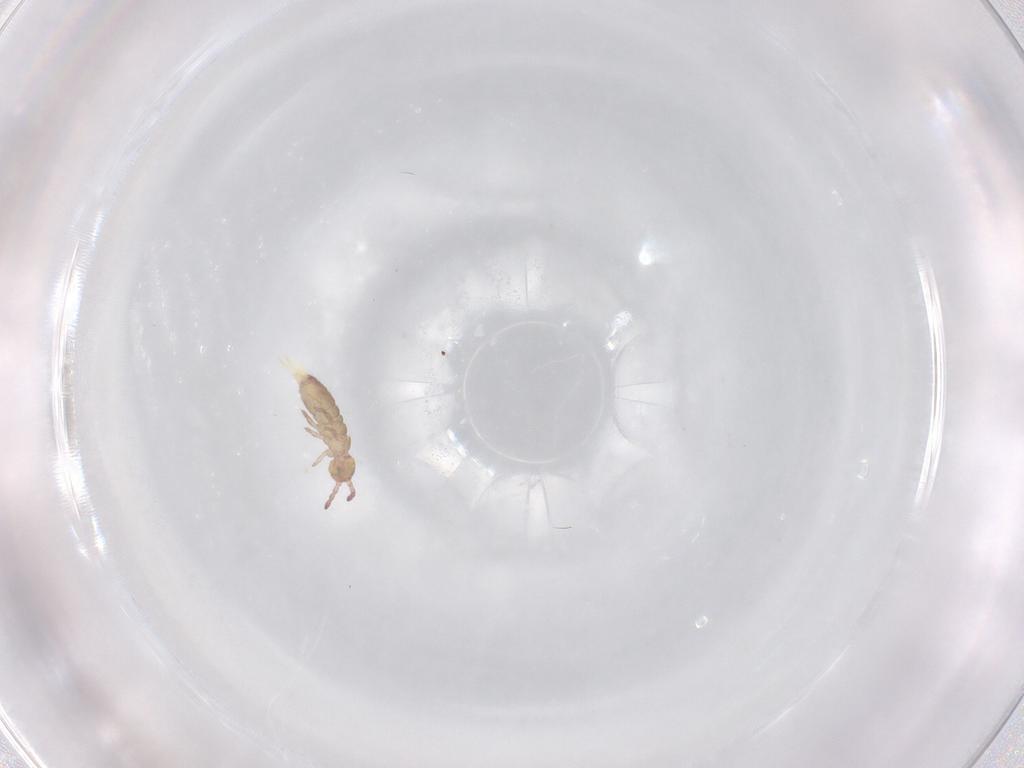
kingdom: Animalia
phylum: Arthropoda
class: Collembola
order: Entomobryomorpha
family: Isotomidae
